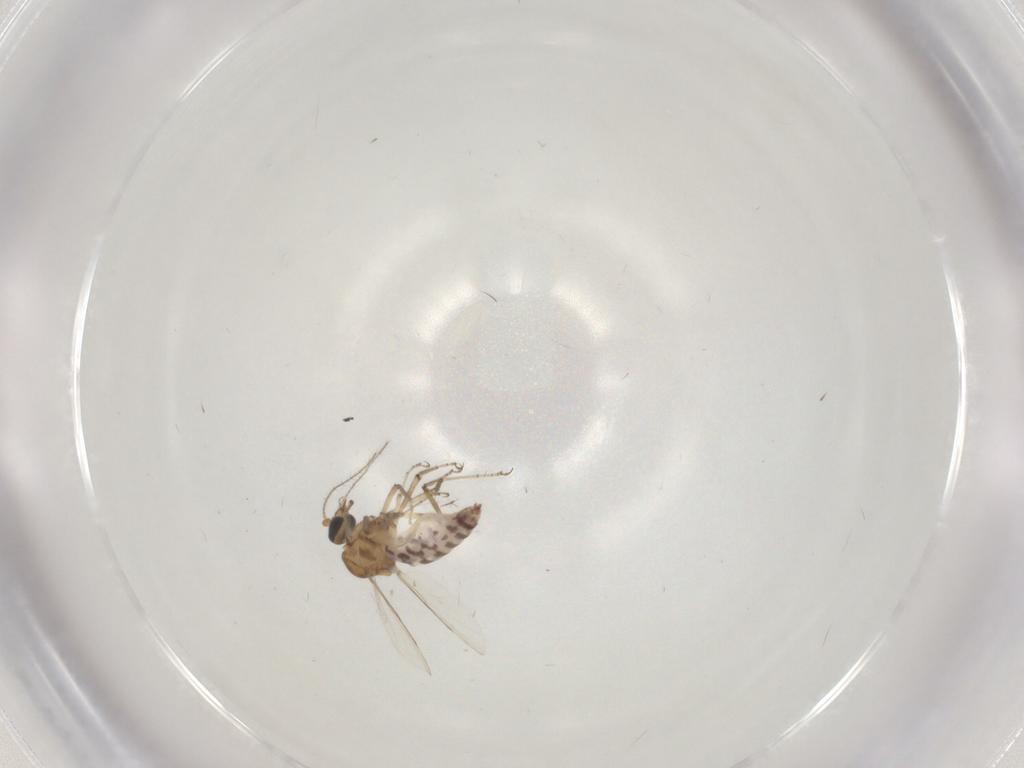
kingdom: Animalia
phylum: Arthropoda
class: Insecta
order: Diptera
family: Ceratopogonidae
